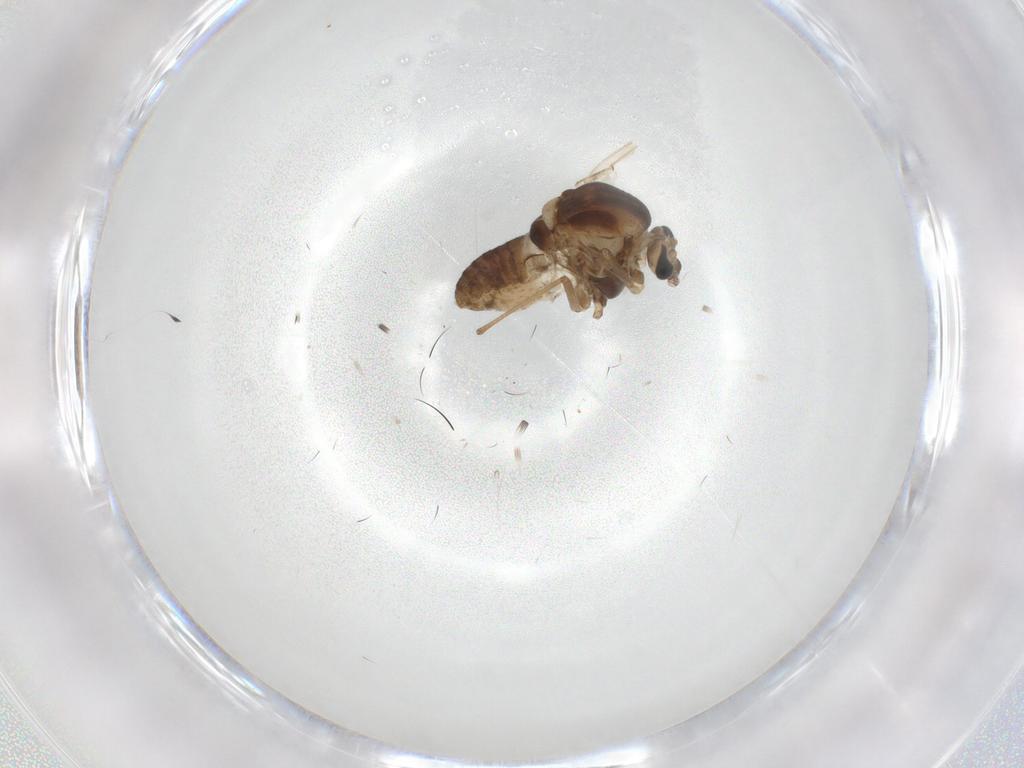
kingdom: Animalia
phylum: Arthropoda
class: Insecta
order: Diptera
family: Chironomidae
